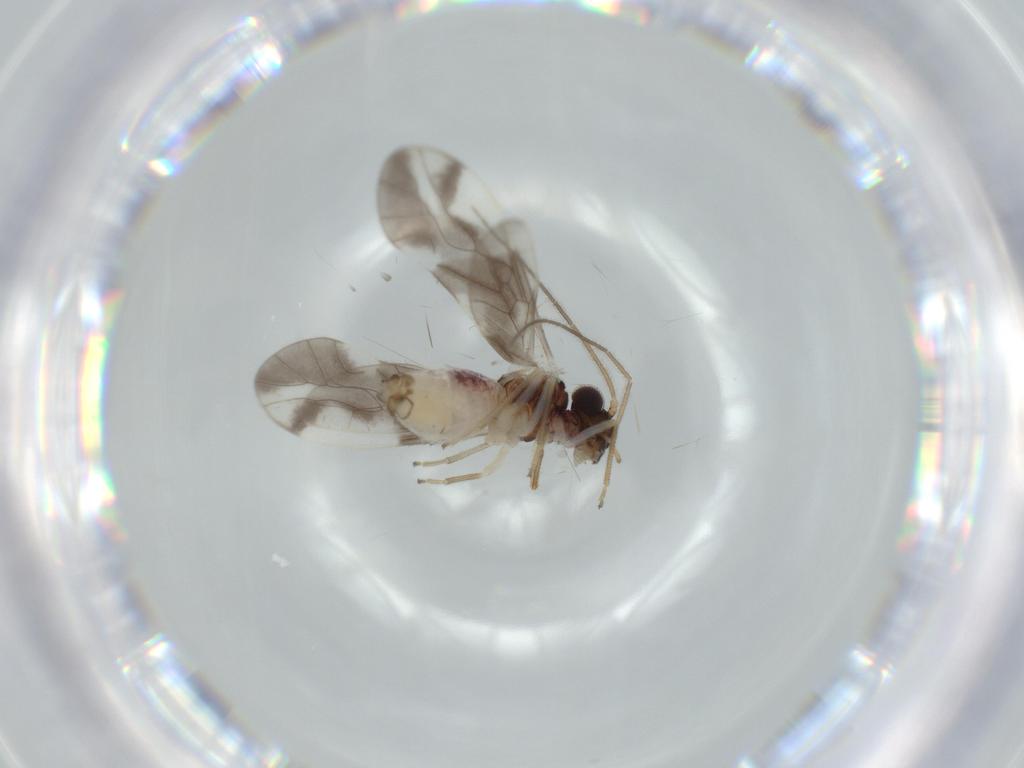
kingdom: Animalia
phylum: Arthropoda
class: Insecta
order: Psocodea
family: Caeciliusidae
